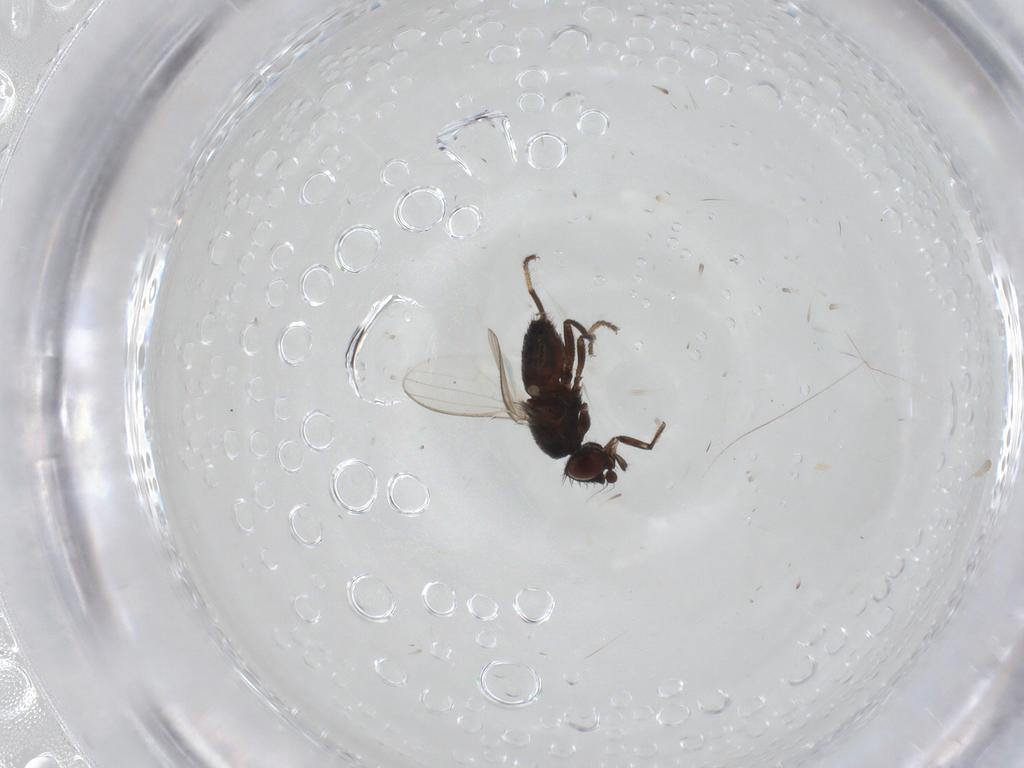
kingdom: Animalia
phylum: Arthropoda
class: Insecta
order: Diptera
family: Milichiidae
